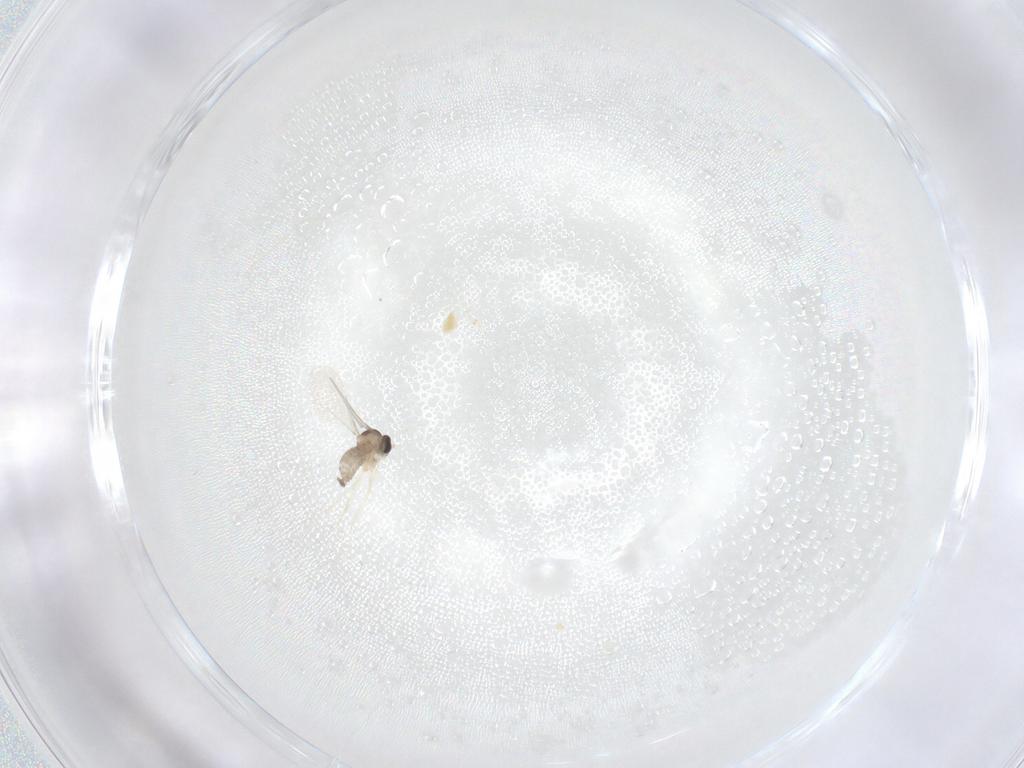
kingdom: Animalia
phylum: Arthropoda
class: Insecta
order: Diptera
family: Cecidomyiidae
